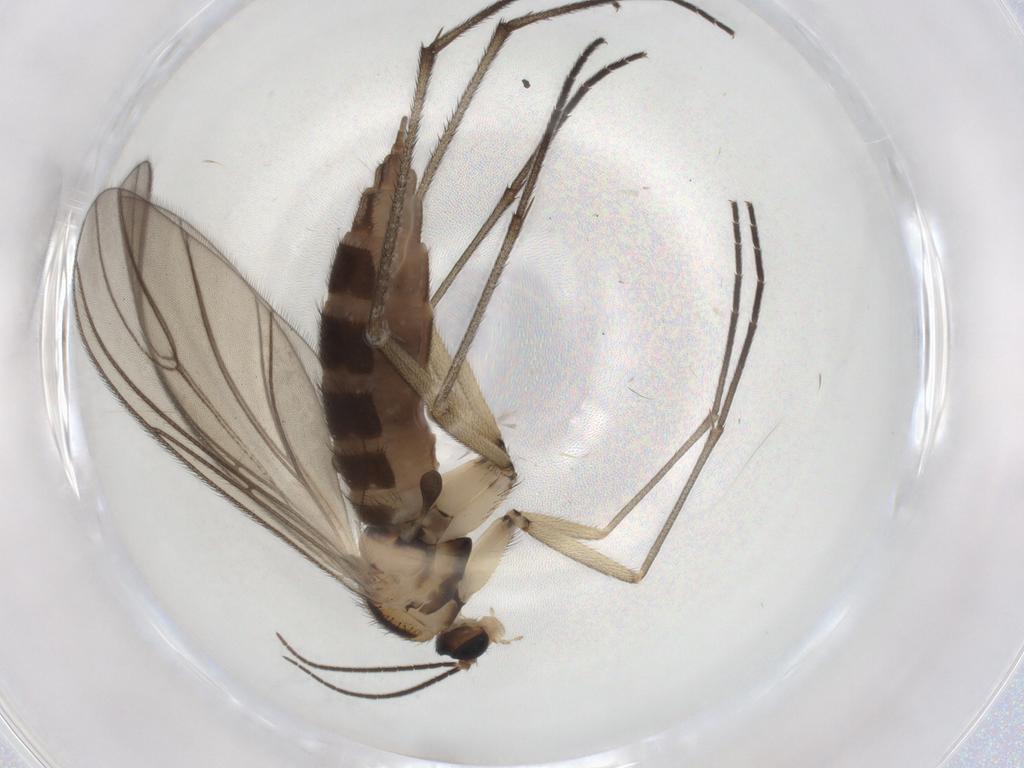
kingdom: Animalia
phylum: Arthropoda
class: Insecta
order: Diptera
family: Sciaridae
